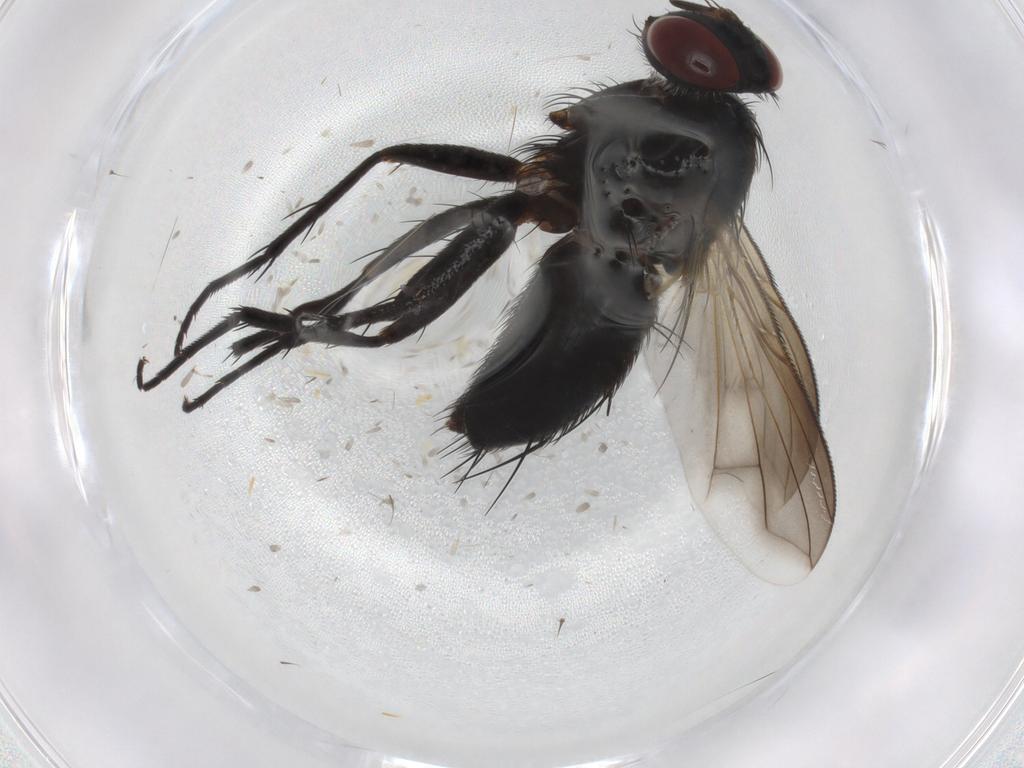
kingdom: Animalia
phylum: Arthropoda
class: Insecta
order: Diptera
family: Tachinidae
